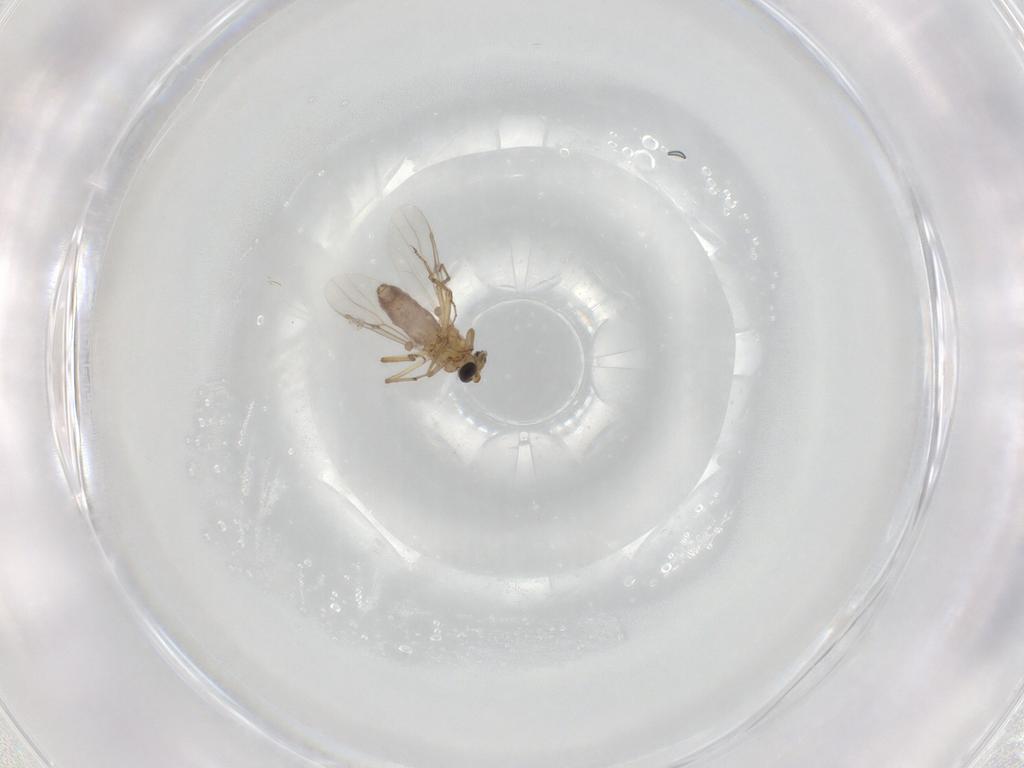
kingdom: Animalia
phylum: Arthropoda
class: Insecta
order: Diptera
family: Ceratopogonidae
